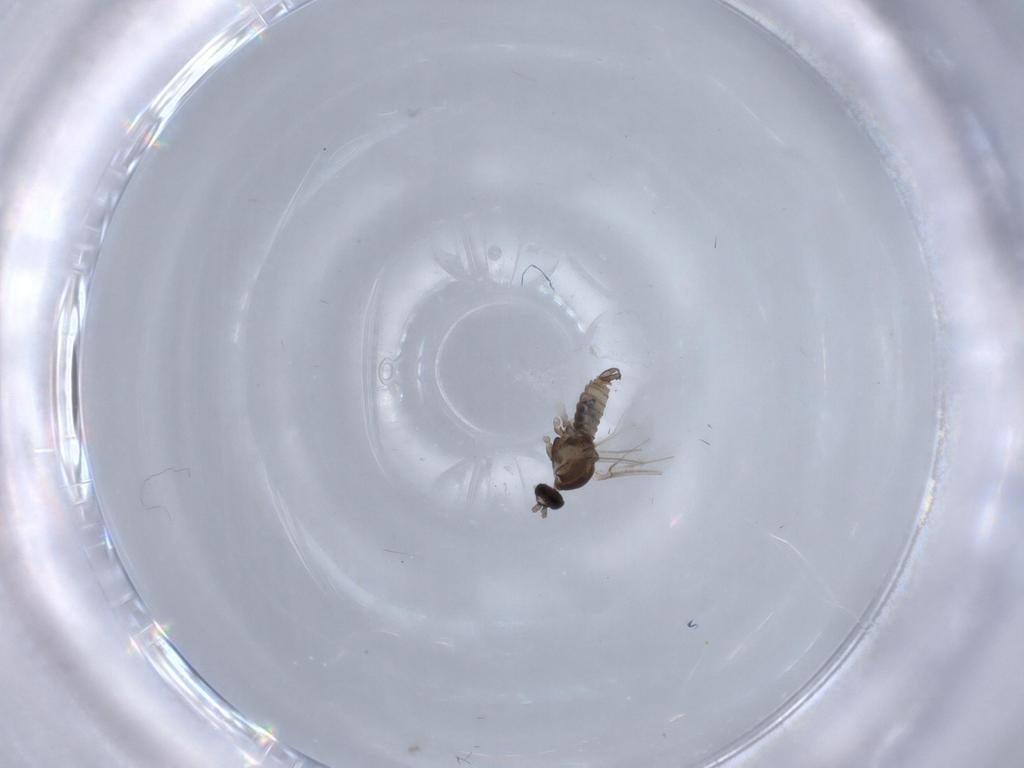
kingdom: Animalia
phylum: Arthropoda
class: Insecta
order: Diptera
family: Cecidomyiidae
